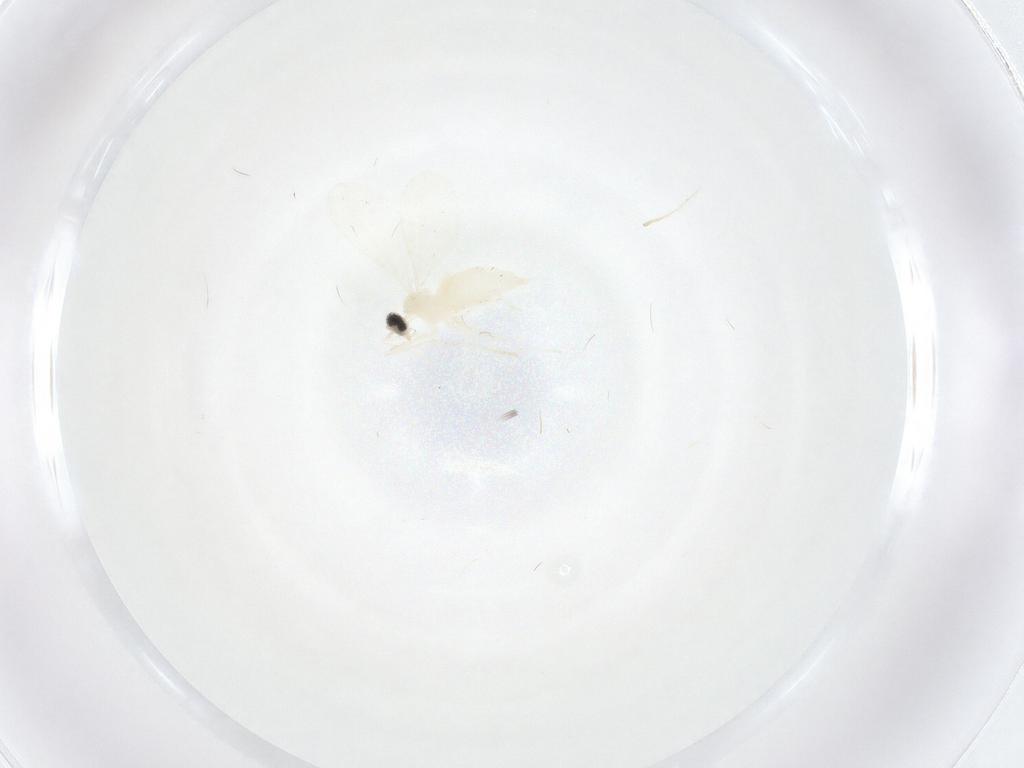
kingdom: Animalia
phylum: Arthropoda
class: Insecta
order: Diptera
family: Cecidomyiidae
